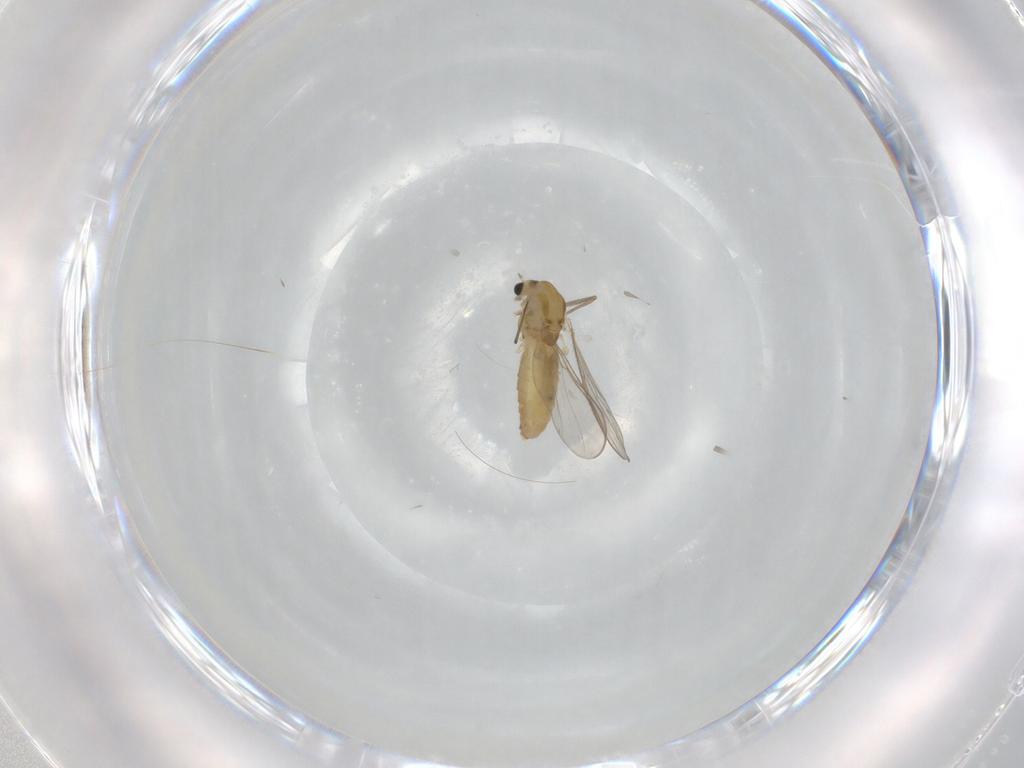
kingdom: Animalia
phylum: Arthropoda
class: Insecta
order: Diptera
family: Chironomidae
